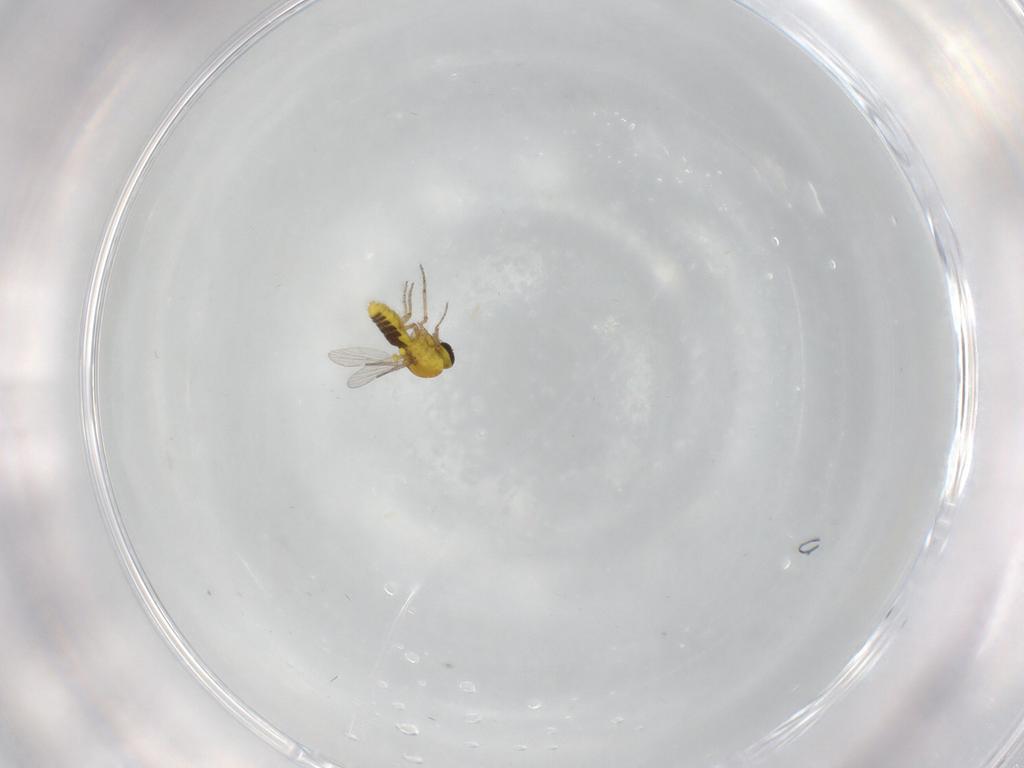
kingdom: Animalia
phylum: Arthropoda
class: Insecta
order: Diptera
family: Ceratopogonidae
